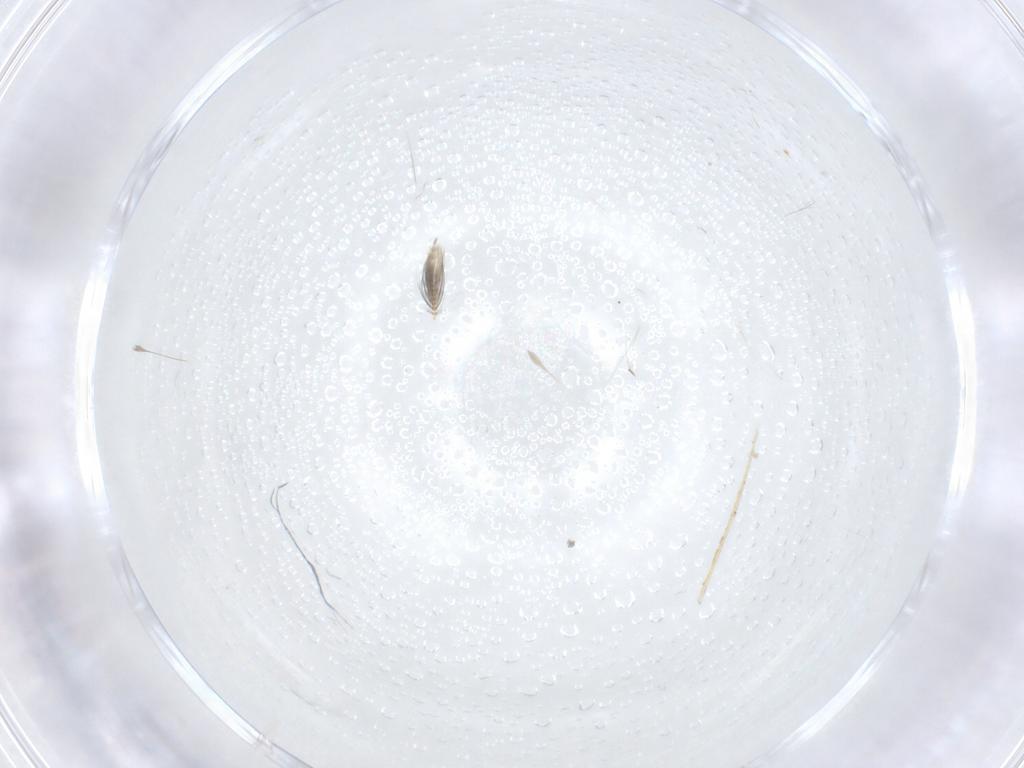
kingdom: Animalia
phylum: Arthropoda
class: Insecta
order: Diptera
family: Ceratopogonidae
